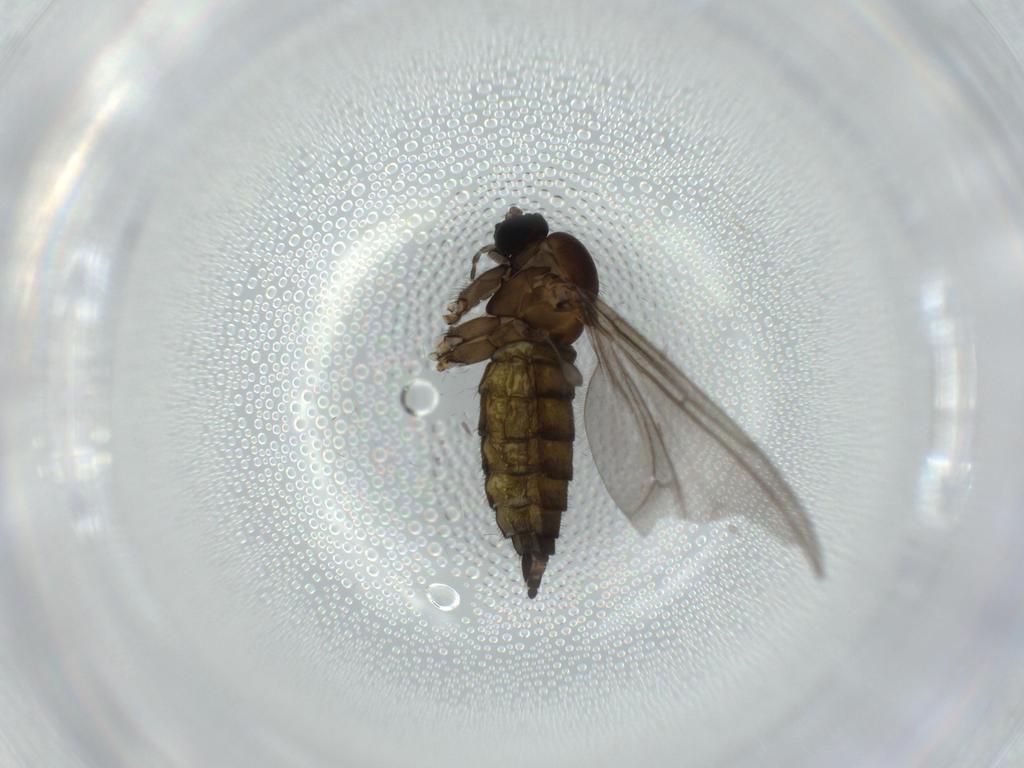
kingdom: Animalia
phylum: Arthropoda
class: Insecta
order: Diptera
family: Sciaridae
